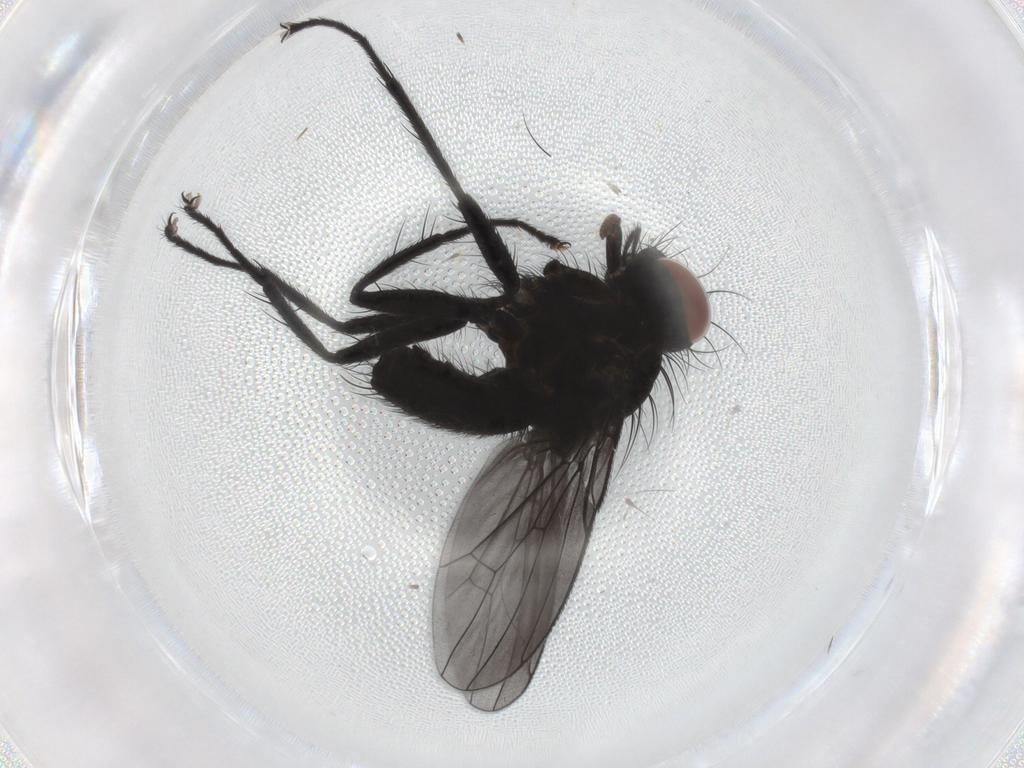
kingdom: Animalia
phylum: Arthropoda
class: Insecta
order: Diptera
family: Muscidae
